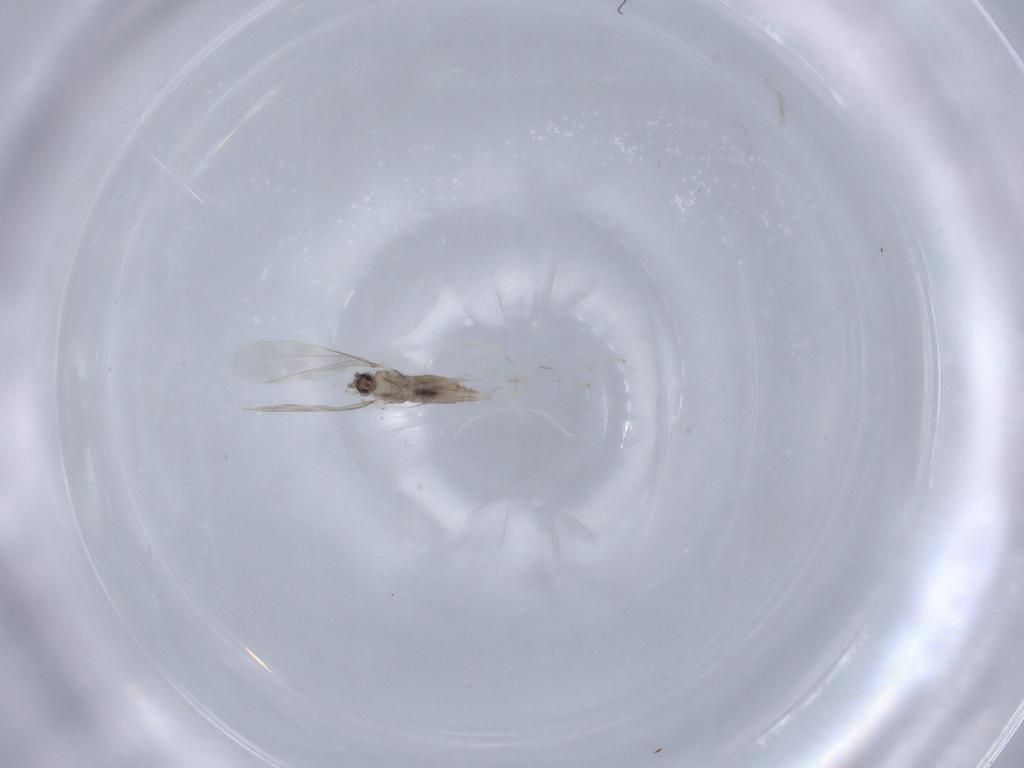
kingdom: Animalia
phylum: Arthropoda
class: Insecta
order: Diptera
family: Cecidomyiidae
